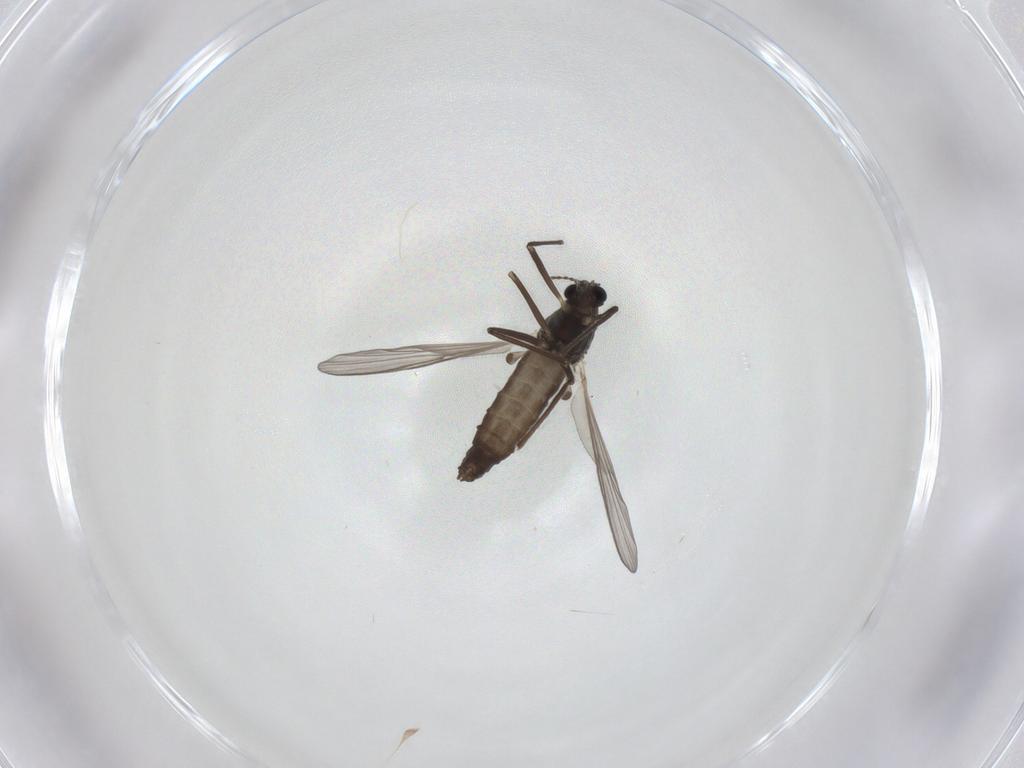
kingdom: Animalia
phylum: Arthropoda
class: Insecta
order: Diptera
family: Chironomidae
